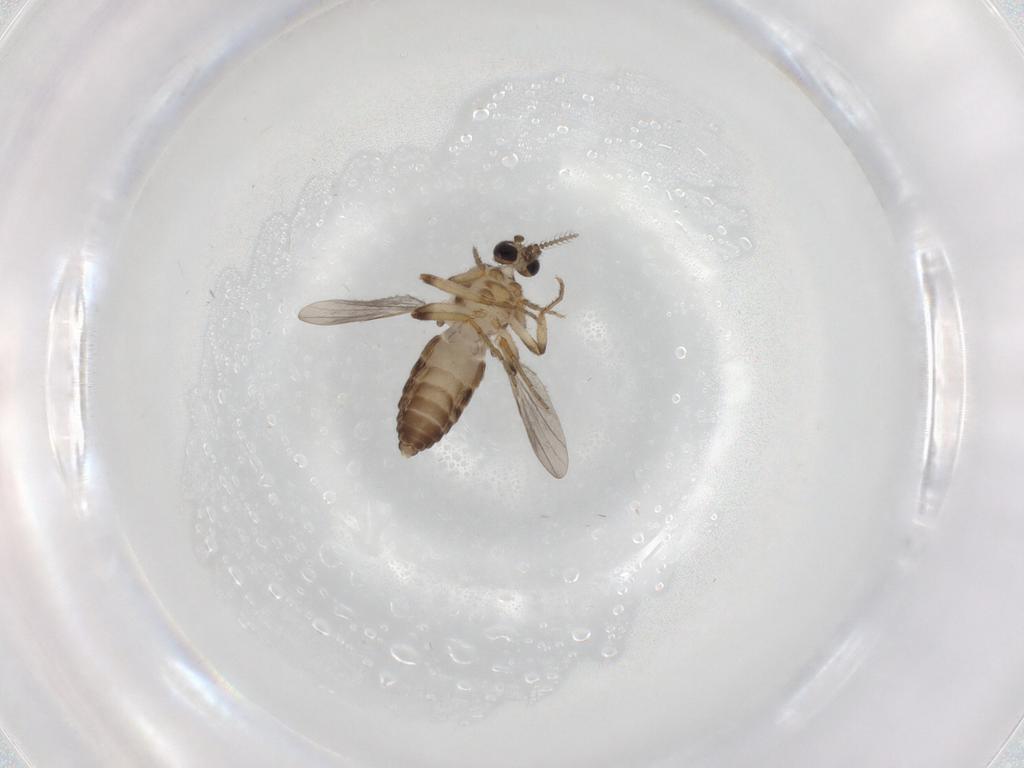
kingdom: Animalia
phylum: Arthropoda
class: Insecta
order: Diptera
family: Ceratopogonidae
